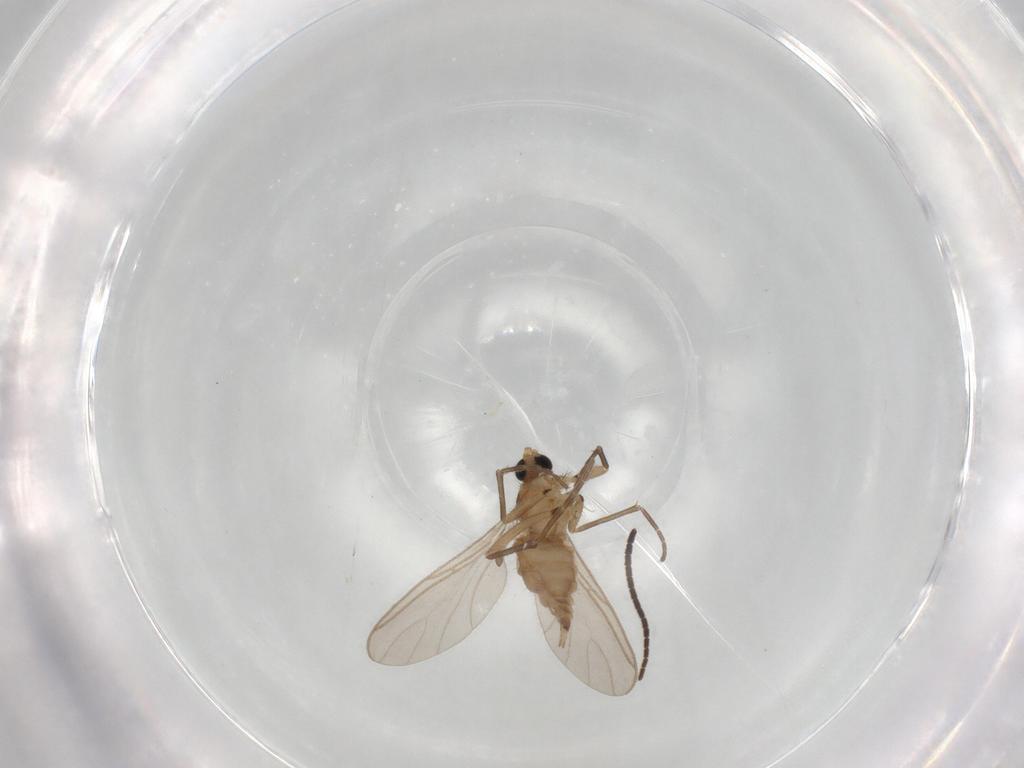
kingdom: Animalia
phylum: Arthropoda
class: Insecta
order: Diptera
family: Sciaridae
